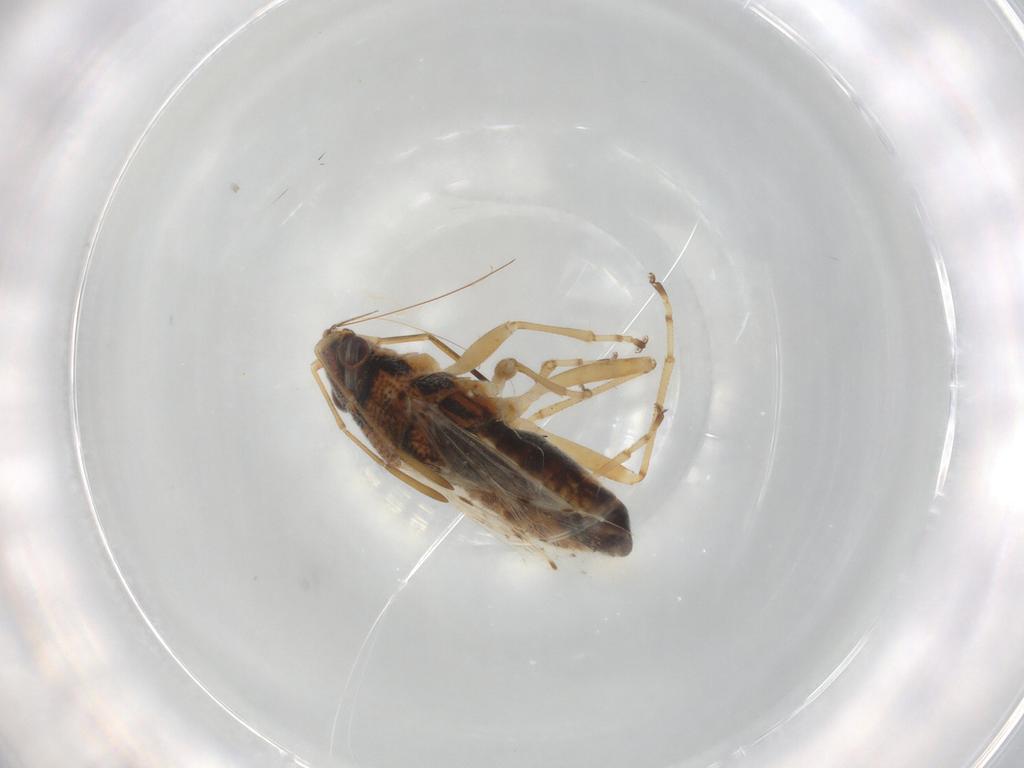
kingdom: Animalia
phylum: Arthropoda
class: Insecta
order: Hemiptera
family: Lygaeidae
